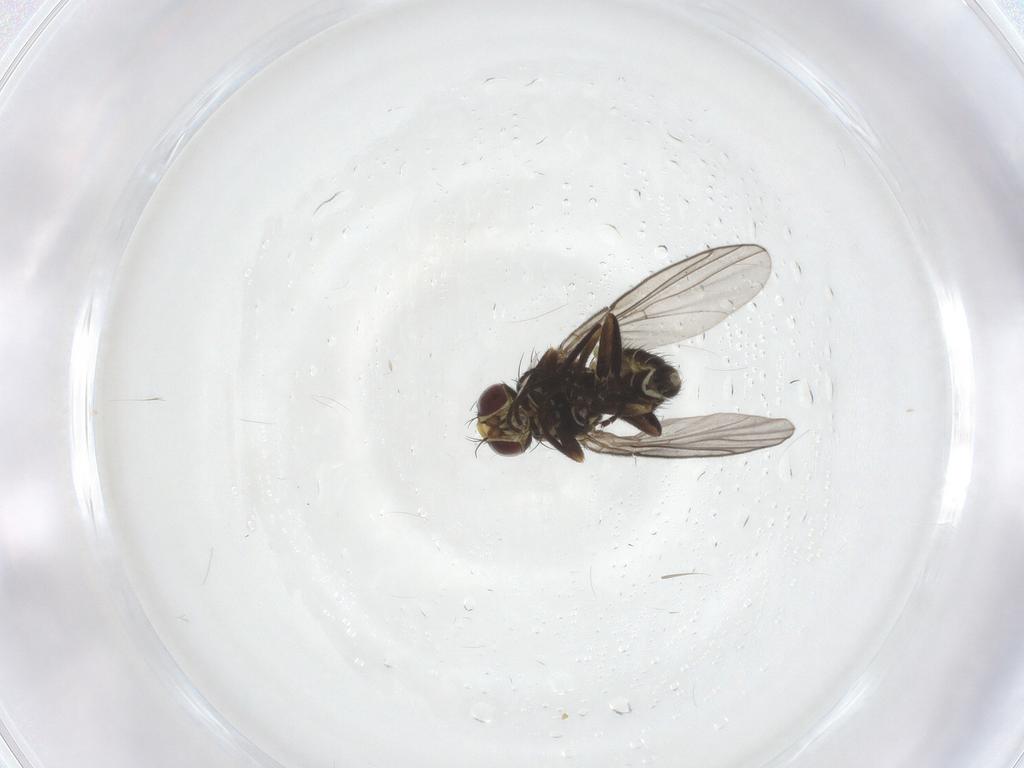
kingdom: Animalia
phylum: Arthropoda
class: Insecta
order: Diptera
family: Agromyzidae
